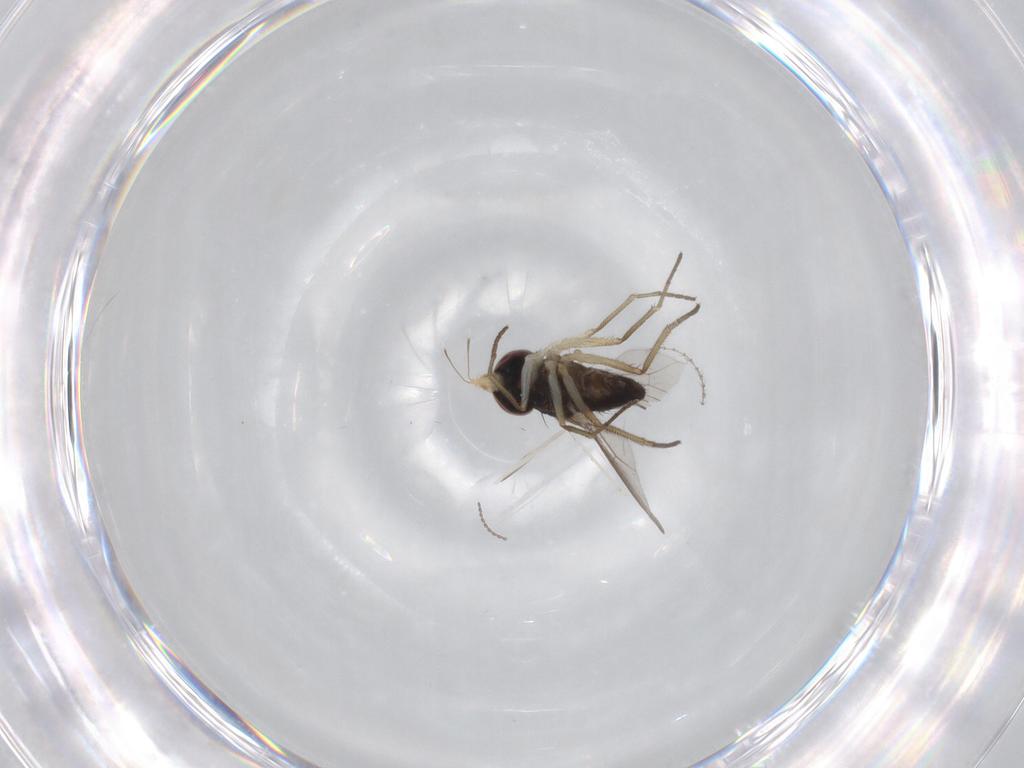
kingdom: Animalia
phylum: Arthropoda
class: Insecta
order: Diptera
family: Dolichopodidae
